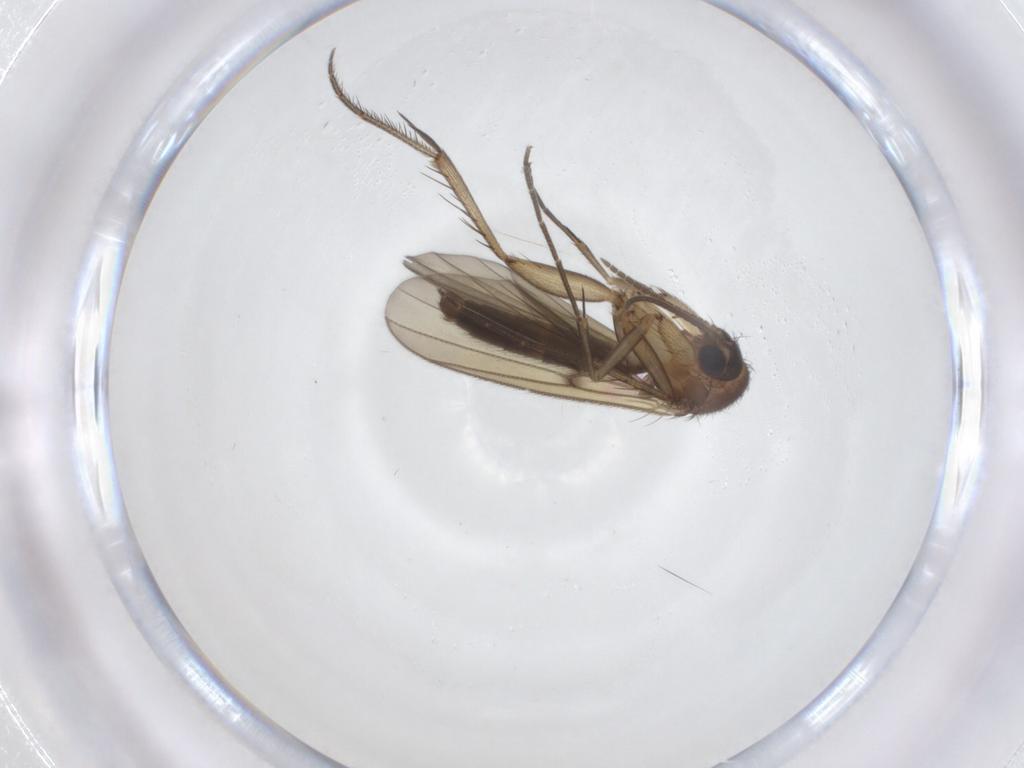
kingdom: Animalia
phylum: Arthropoda
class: Insecta
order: Diptera
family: Phoridae
